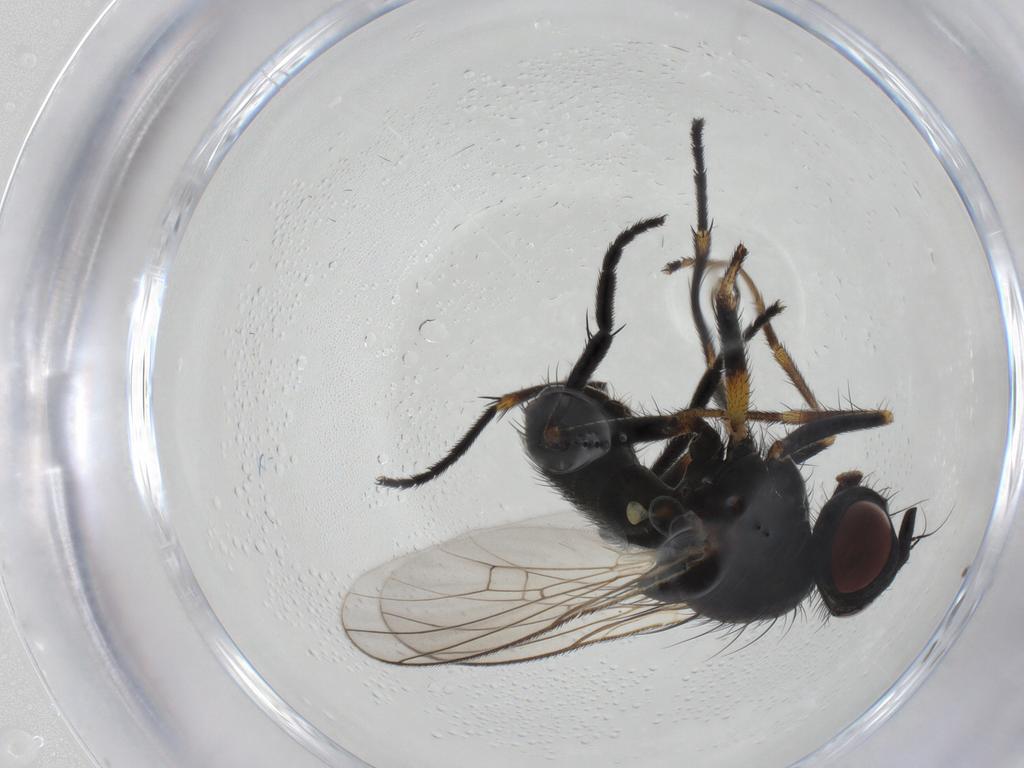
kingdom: Animalia
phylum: Arthropoda
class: Insecta
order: Diptera
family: Muscidae
